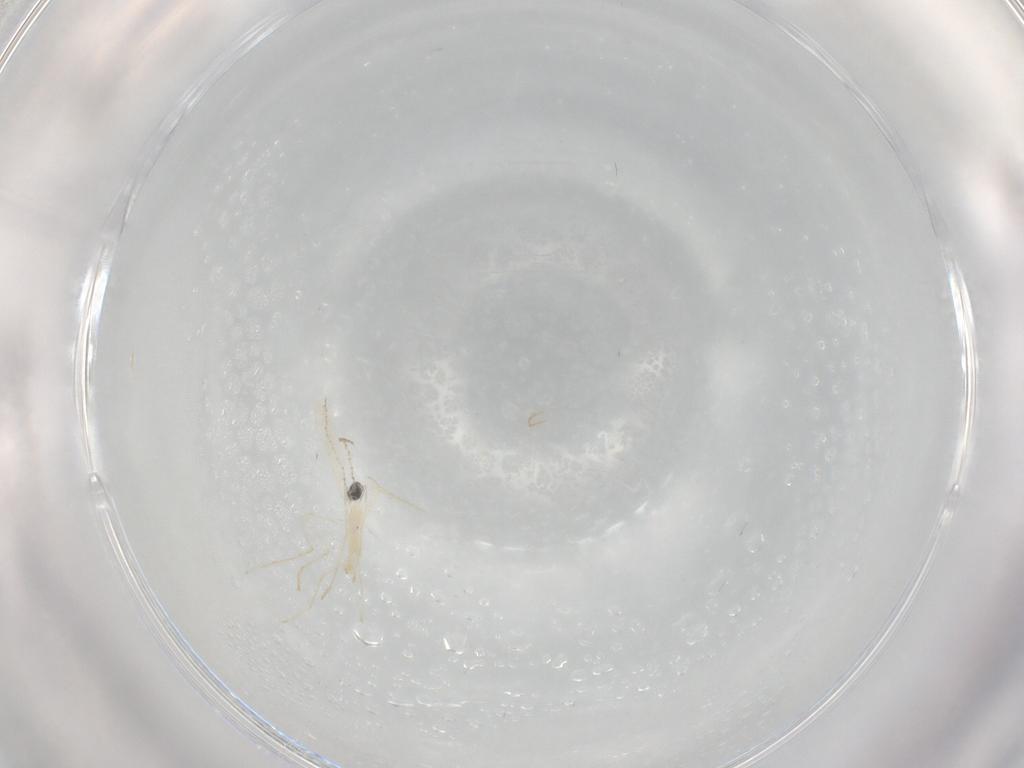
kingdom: Animalia
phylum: Arthropoda
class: Insecta
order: Diptera
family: Cecidomyiidae
